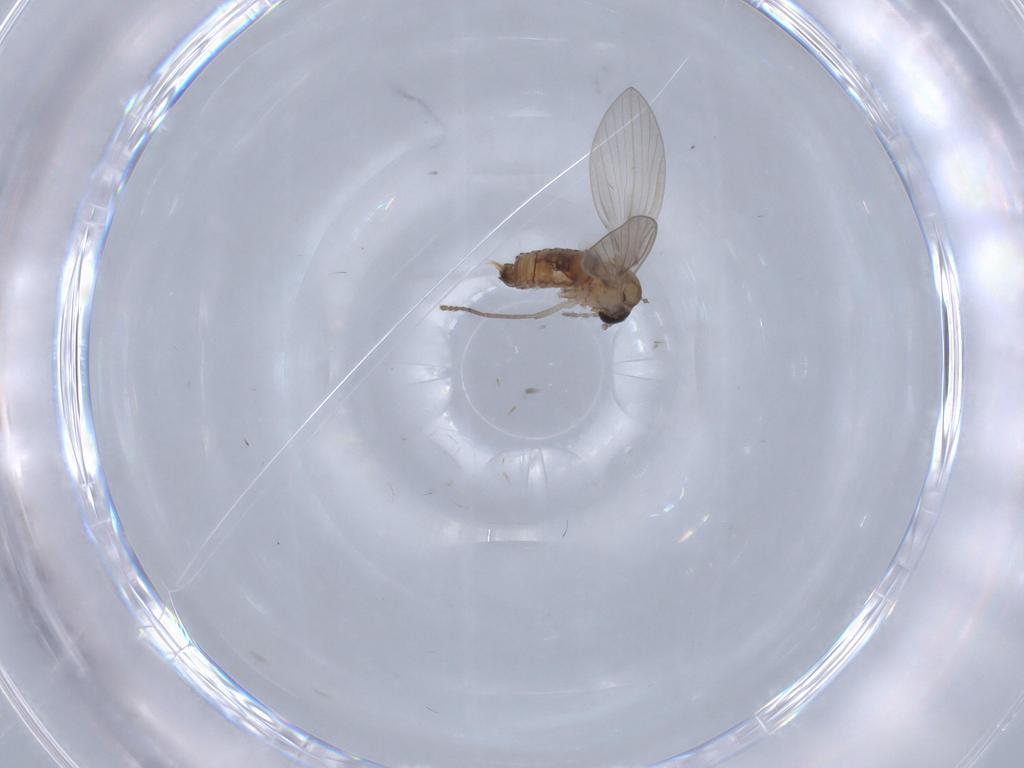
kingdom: Animalia
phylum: Arthropoda
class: Insecta
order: Diptera
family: Psychodidae
